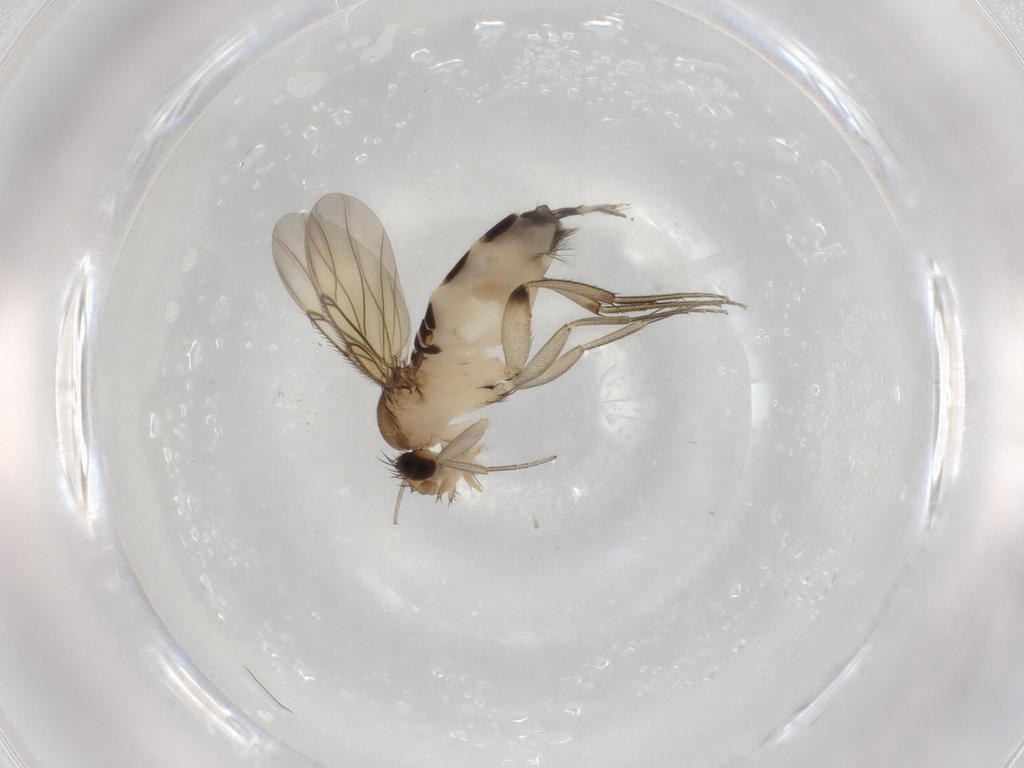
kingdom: Animalia
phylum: Arthropoda
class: Insecta
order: Diptera
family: Phoridae
